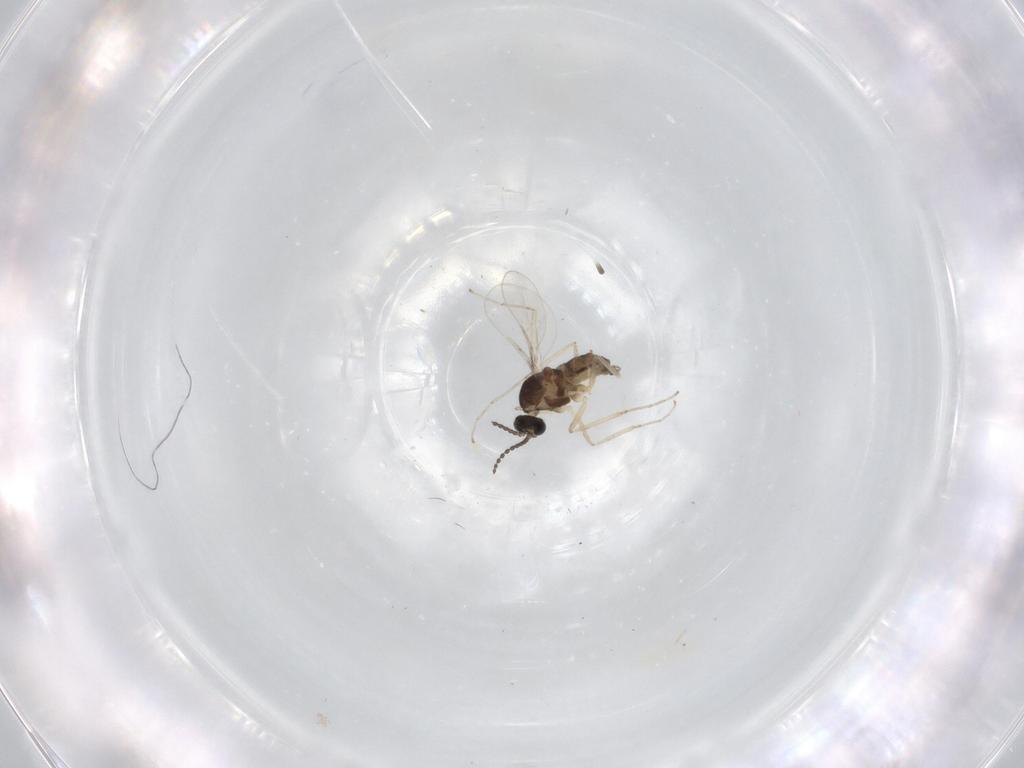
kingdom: Animalia
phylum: Arthropoda
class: Insecta
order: Diptera
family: Cecidomyiidae
